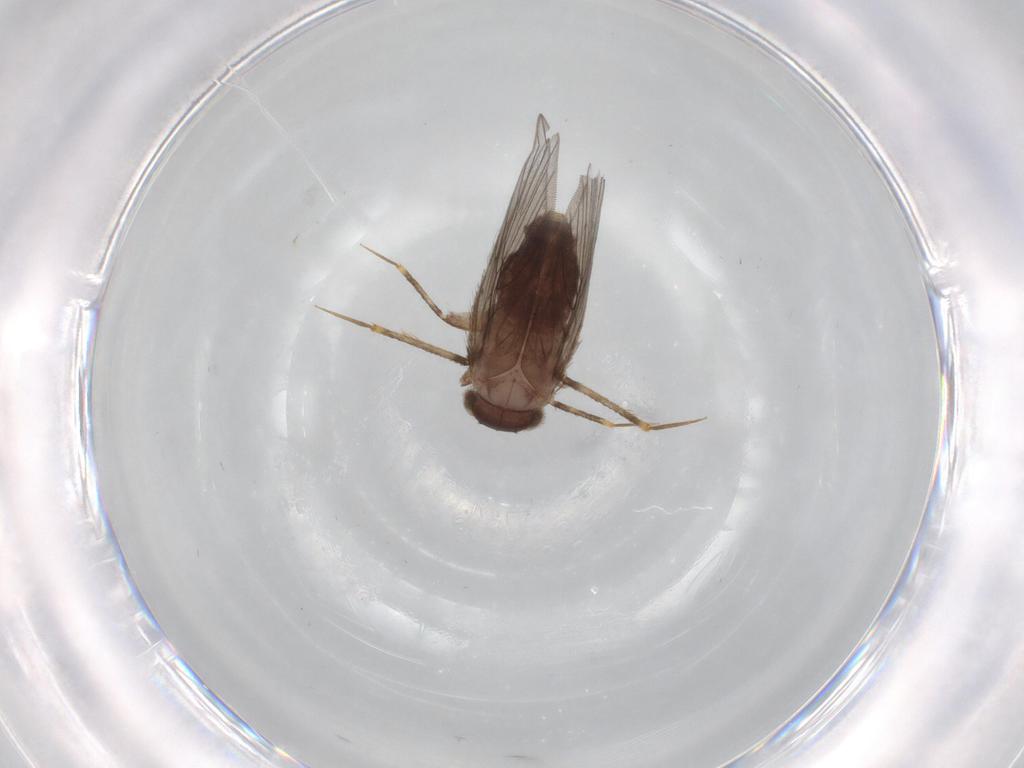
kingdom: Animalia
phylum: Arthropoda
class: Insecta
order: Psocodea
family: Lepidopsocidae
